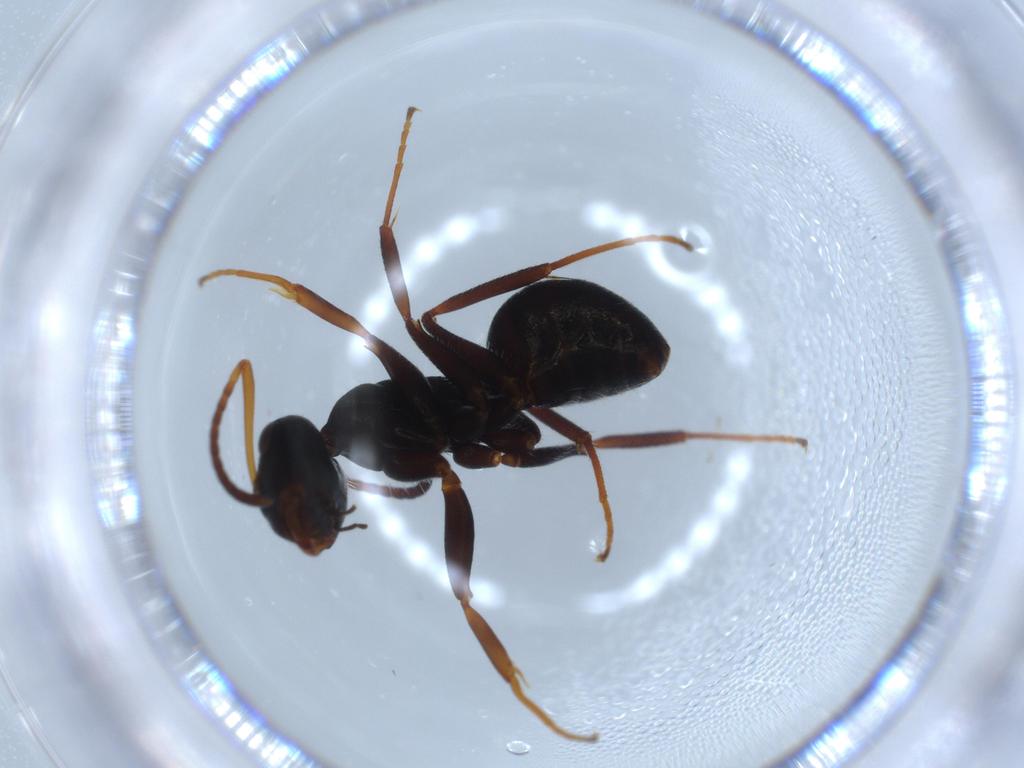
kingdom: Animalia
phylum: Arthropoda
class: Insecta
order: Hymenoptera
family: Formicidae
